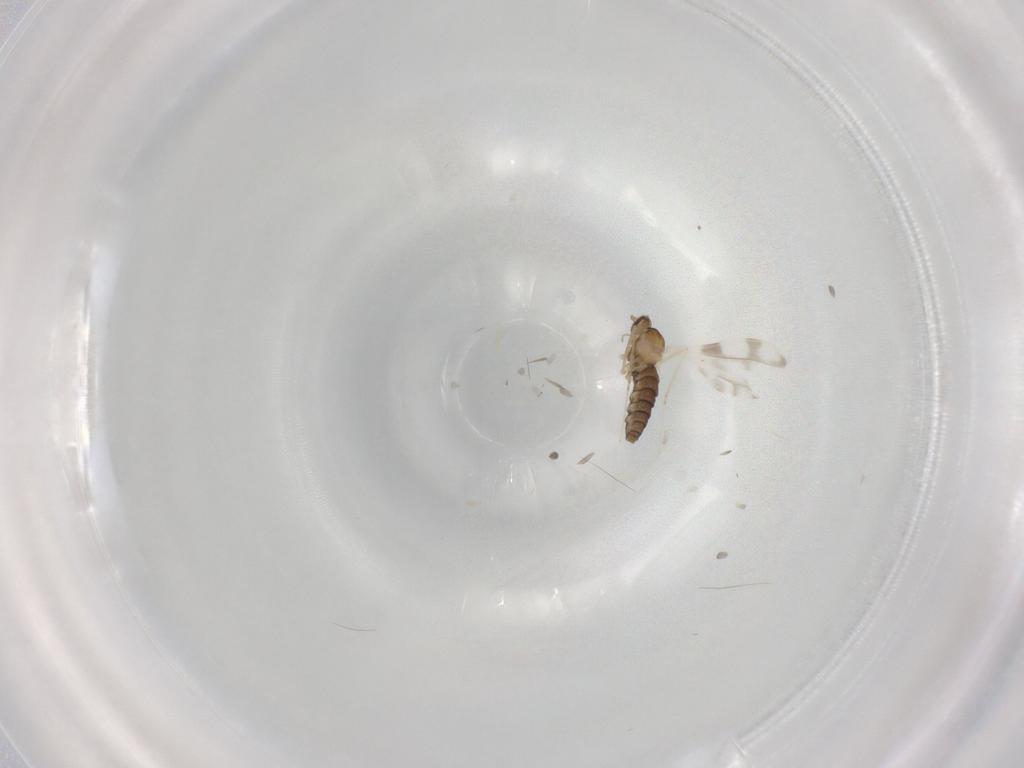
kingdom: Animalia
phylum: Arthropoda
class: Insecta
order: Diptera
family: Cecidomyiidae
